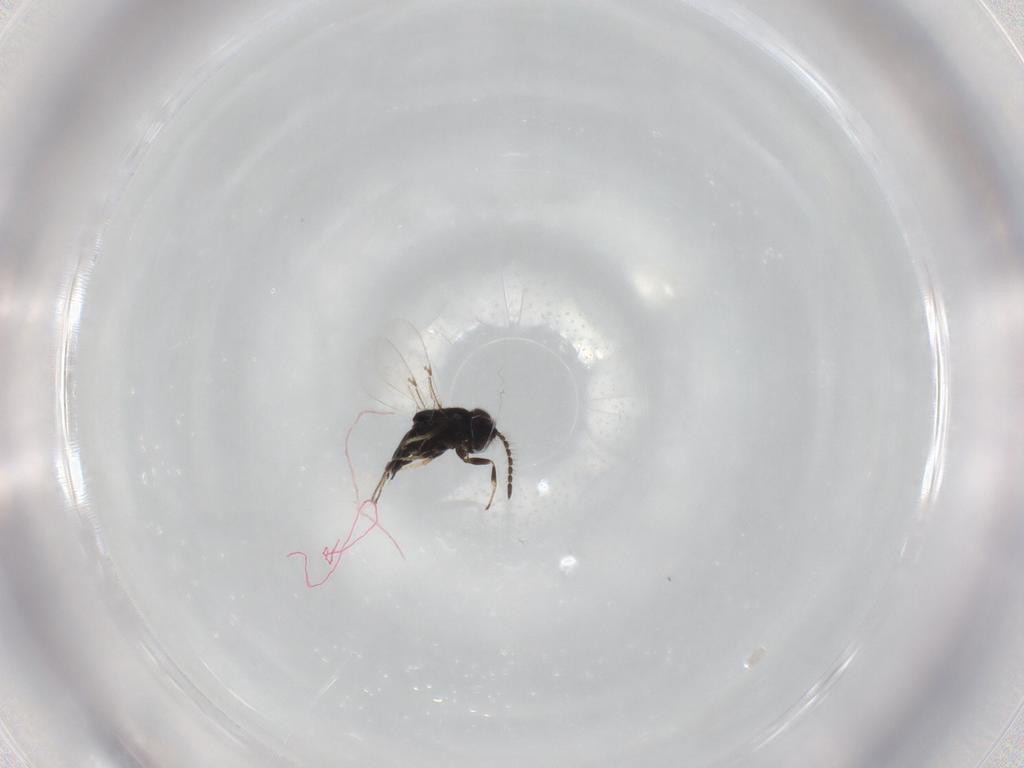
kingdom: Animalia
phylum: Arthropoda
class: Insecta
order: Hymenoptera
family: Encyrtidae
